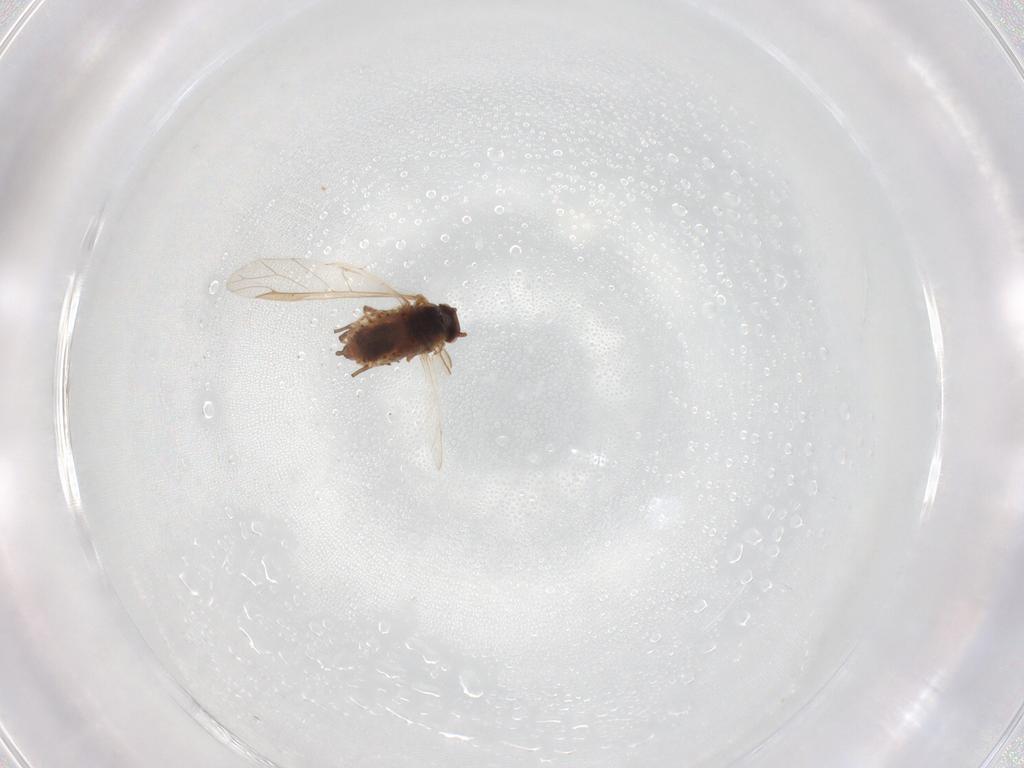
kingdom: Animalia
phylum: Arthropoda
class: Insecta
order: Hemiptera
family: Aphididae
